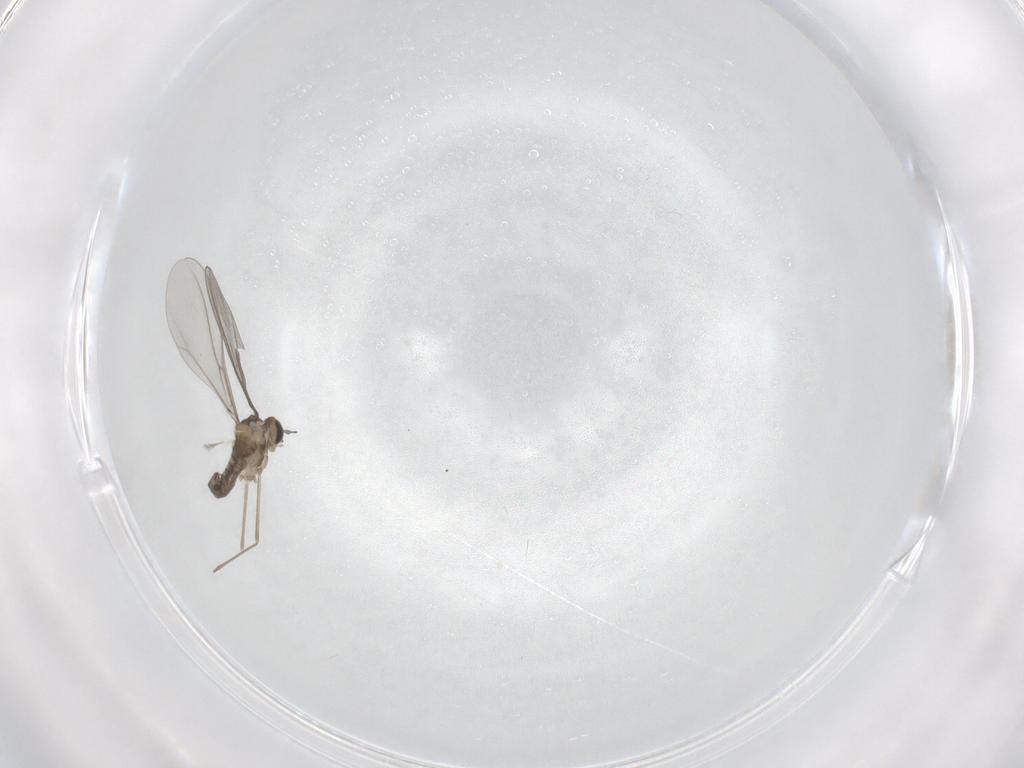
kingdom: Animalia
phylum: Arthropoda
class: Insecta
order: Diptera
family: Cecidomyiidae
